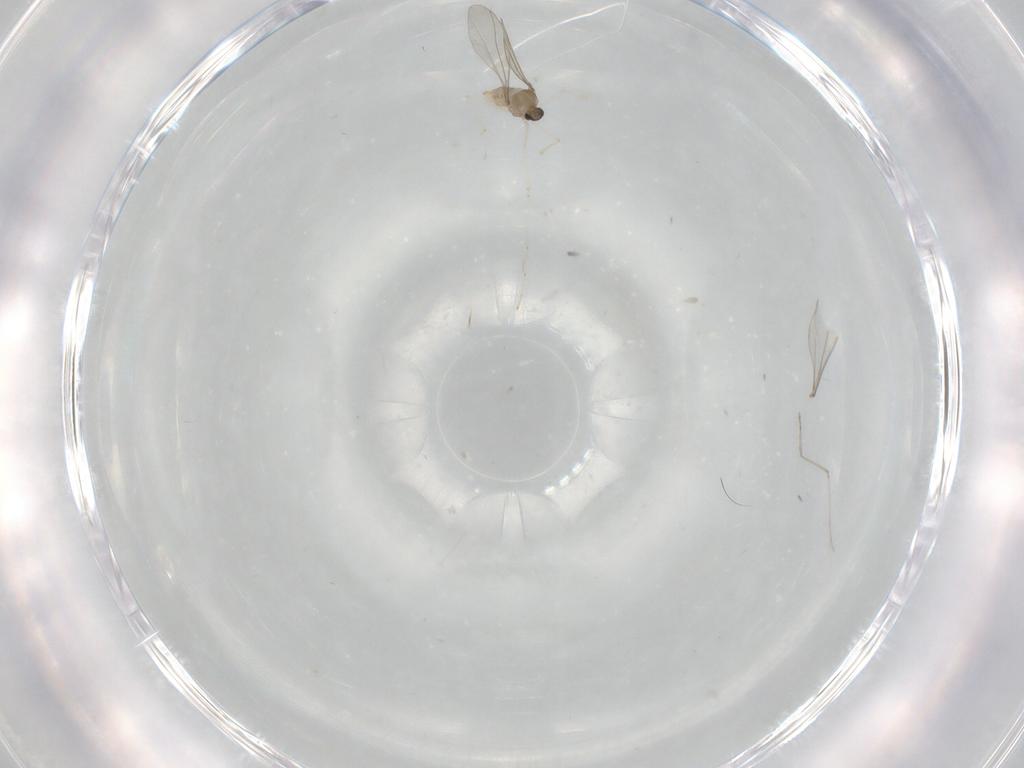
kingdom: Animalia
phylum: Arthropoda
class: Insecta
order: Diptera
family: Cecidomyiidae
